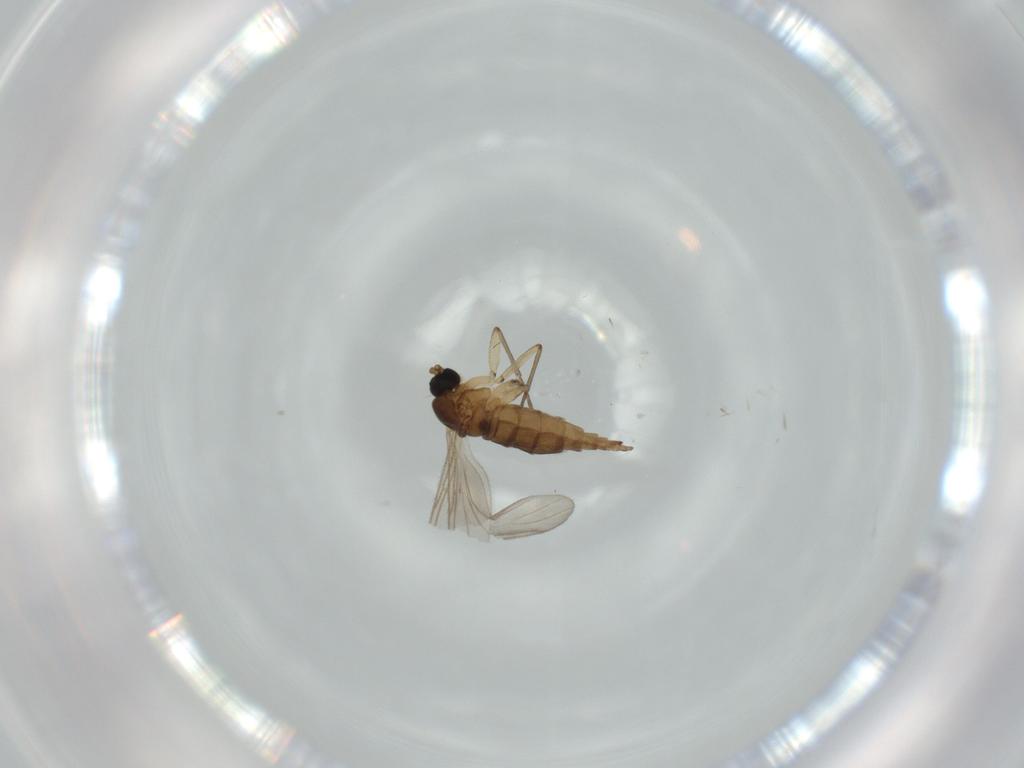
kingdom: Animalia
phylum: Arthropoda
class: Insecta
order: Diptera
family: Sciaridae
